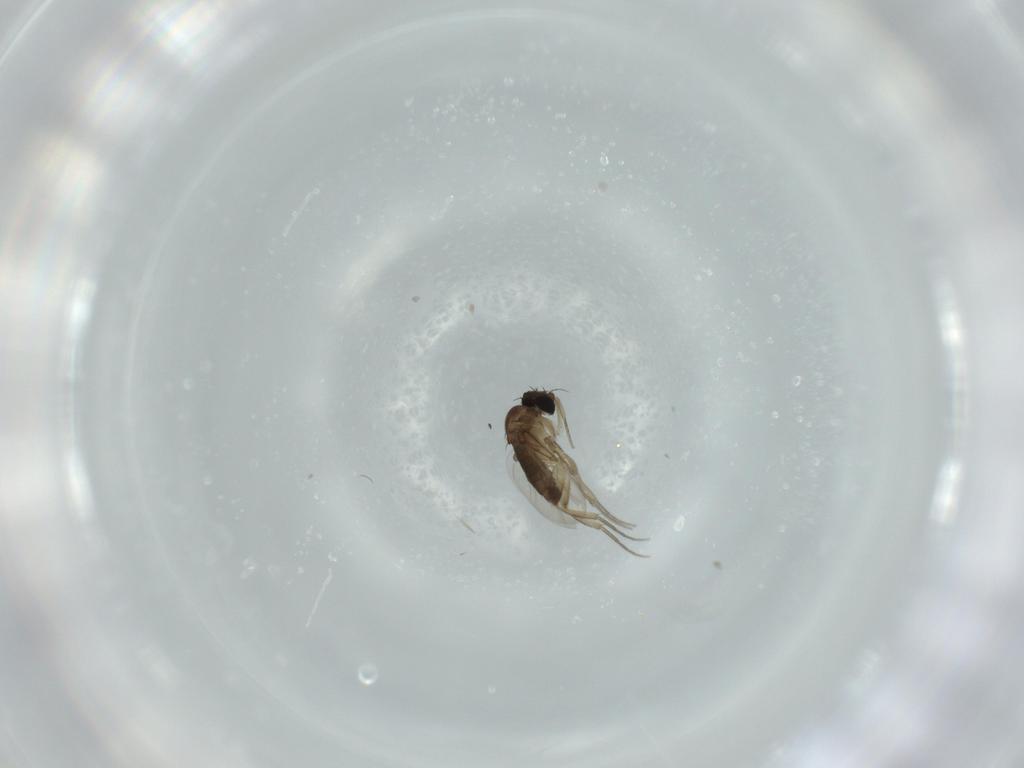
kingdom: Animalia
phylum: Arthropoda
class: Insecta
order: Diptera
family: Phoridae
